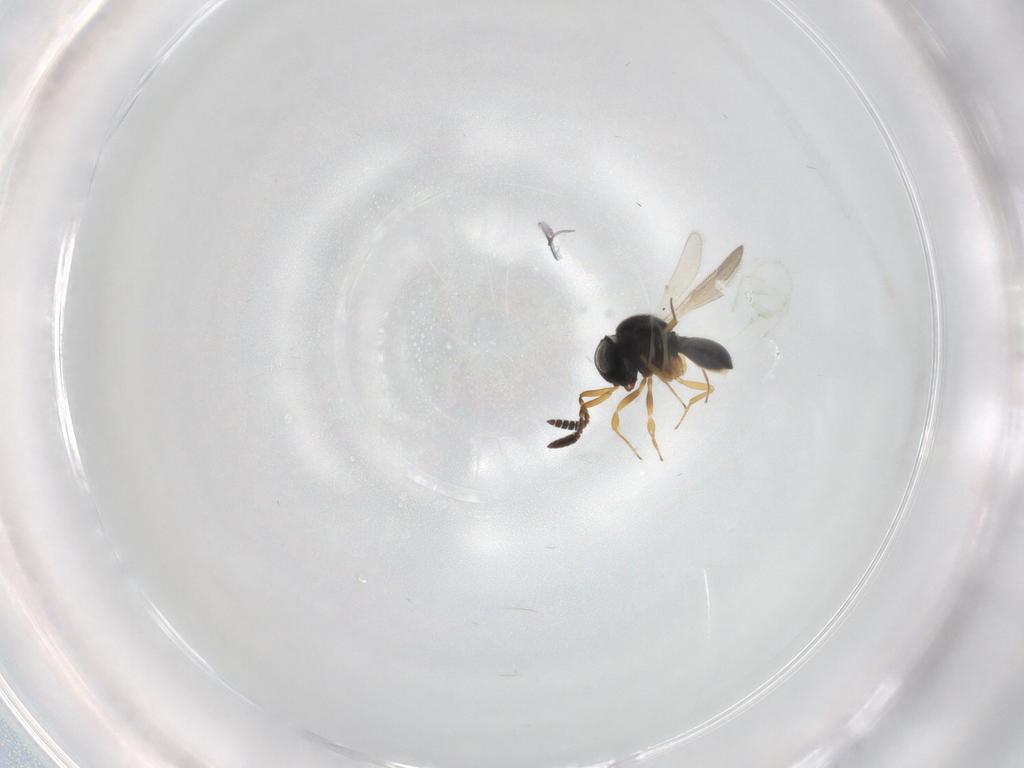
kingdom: Animalia
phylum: Arthropoda
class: Insecta
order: Hymenoptera
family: Scelionidae
